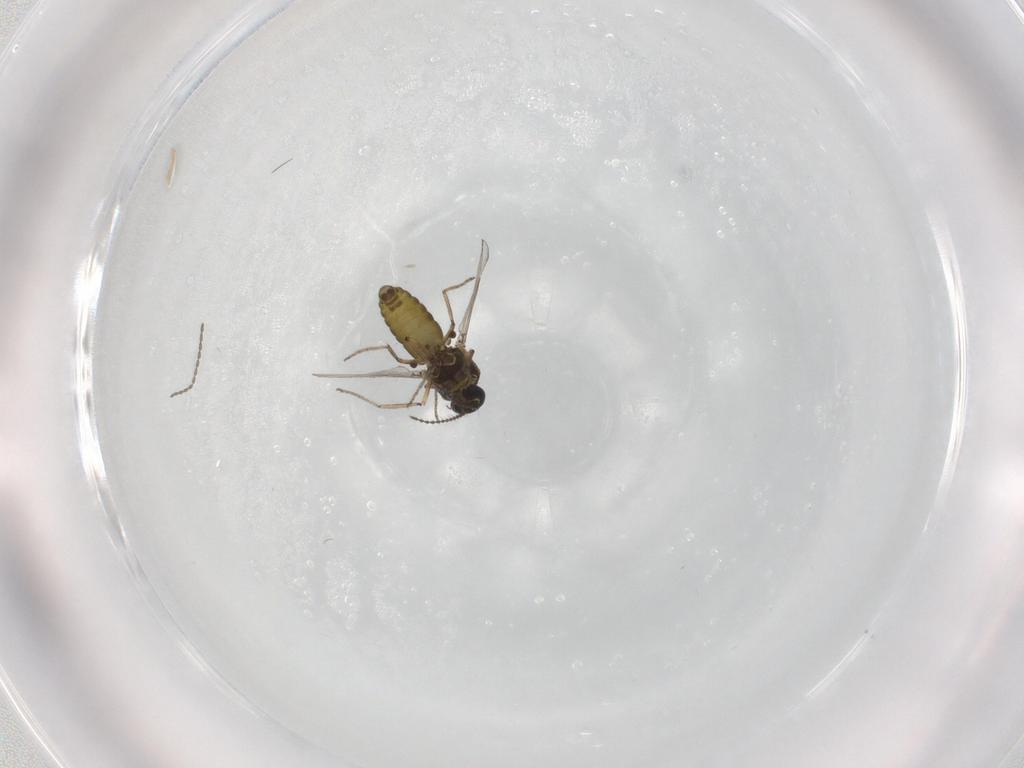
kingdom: Animalia
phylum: Arthropoda
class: Insecta
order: Diptera
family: Ceratopogonidae
